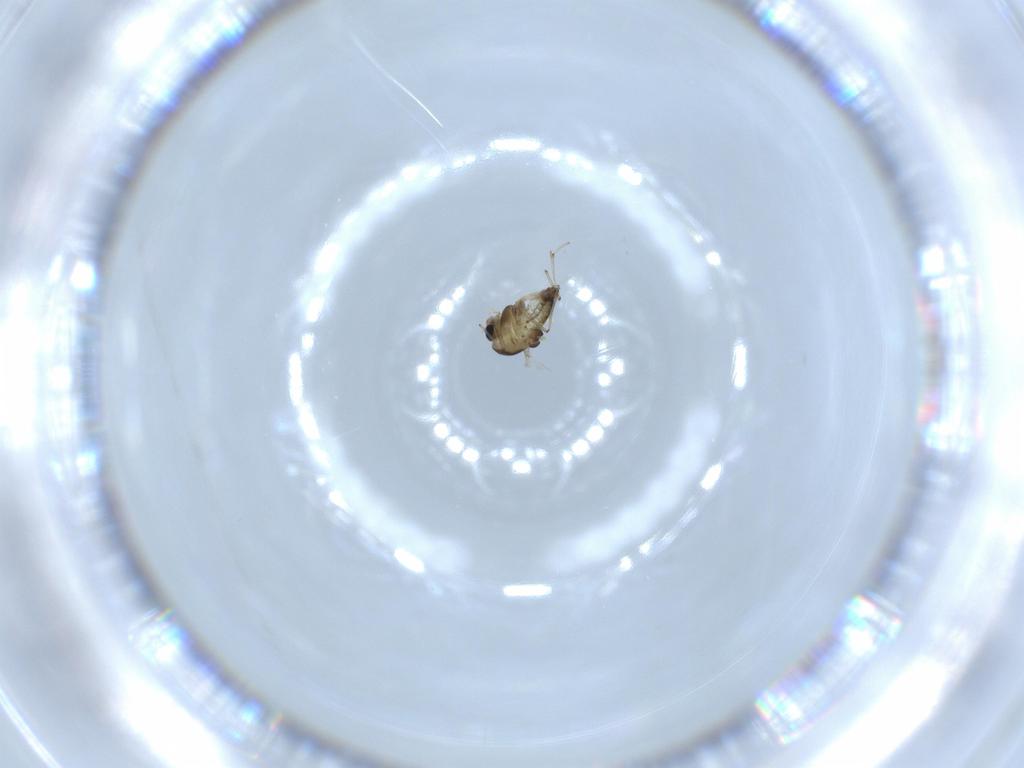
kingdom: Animalia
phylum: Arthropoda
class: Insecta
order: Diptera
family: Chironomidae
